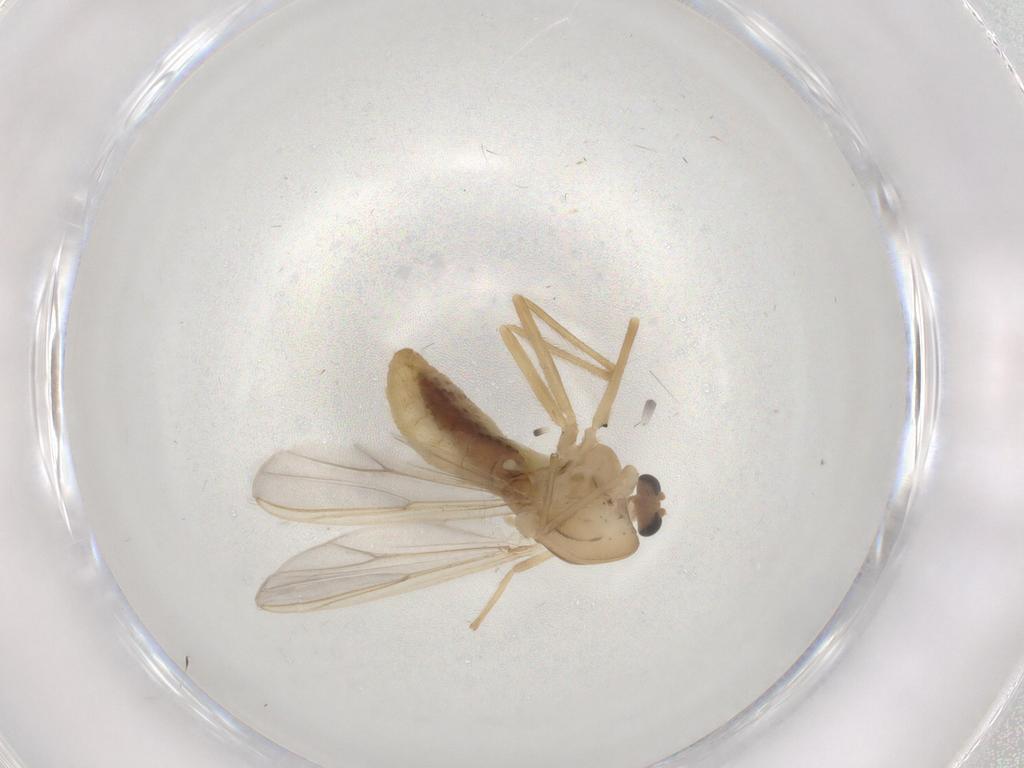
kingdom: Animalia
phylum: Arthropoda
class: Insecta
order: Diptera
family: Chironomidae
